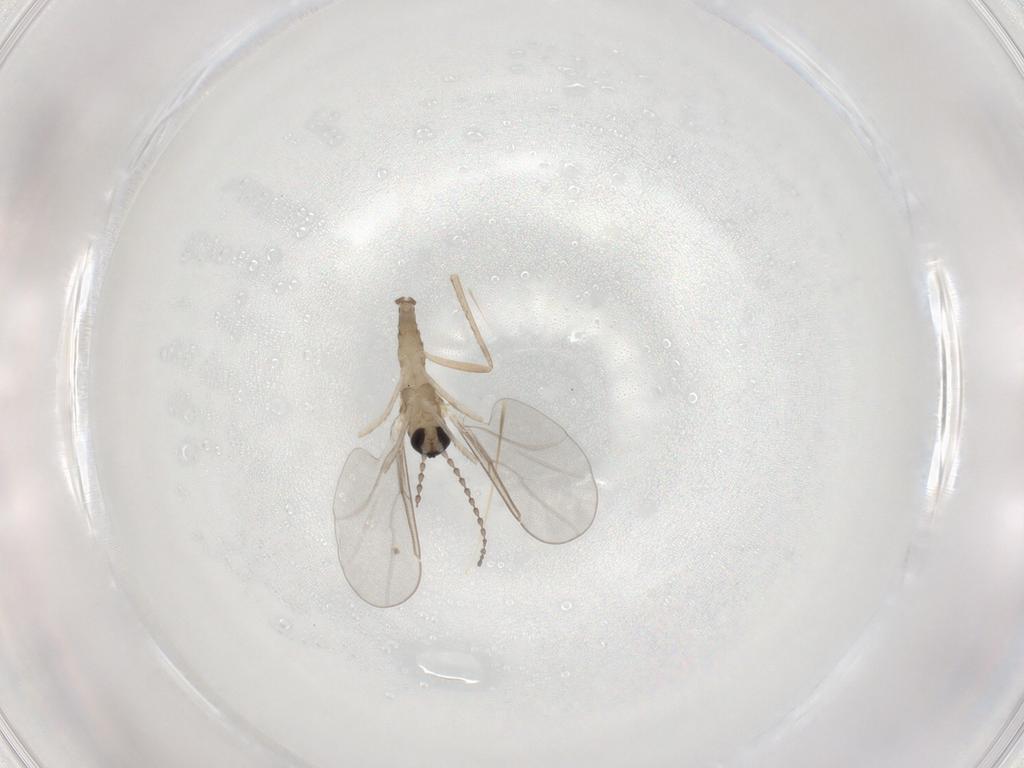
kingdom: Animalia
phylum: Arthropoda
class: Insecta
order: Diptera
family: Cecidomyiidae
